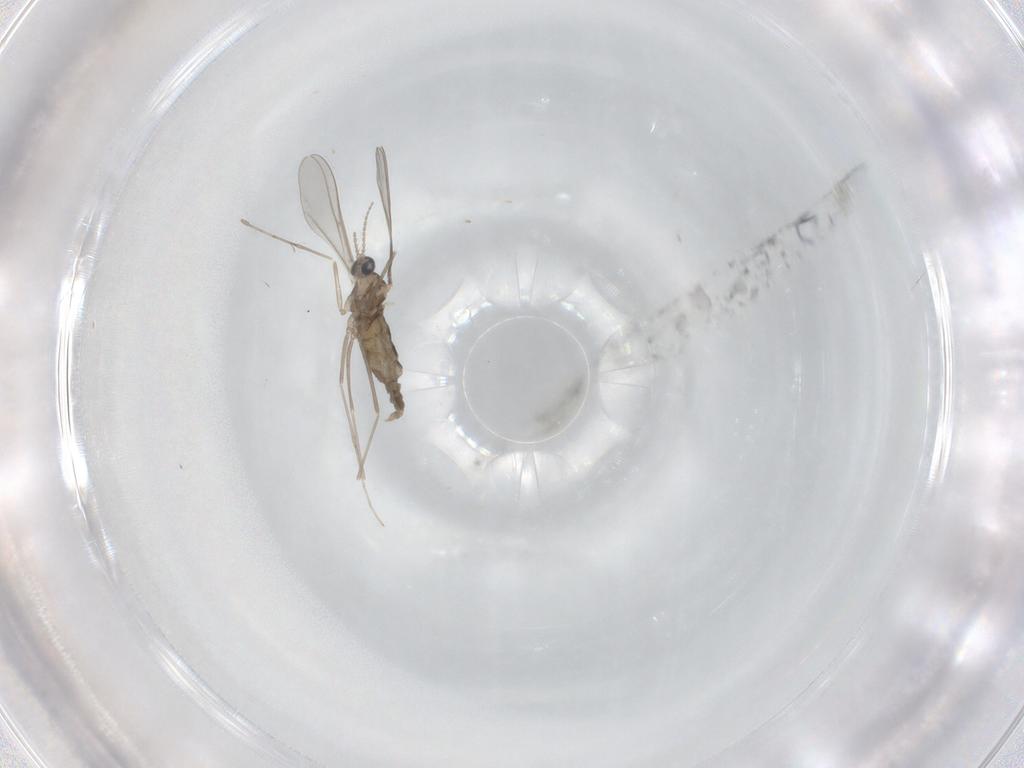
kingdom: Animalia
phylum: Arthropoda
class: Insecta
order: Diptera
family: Cecidomyiidae
